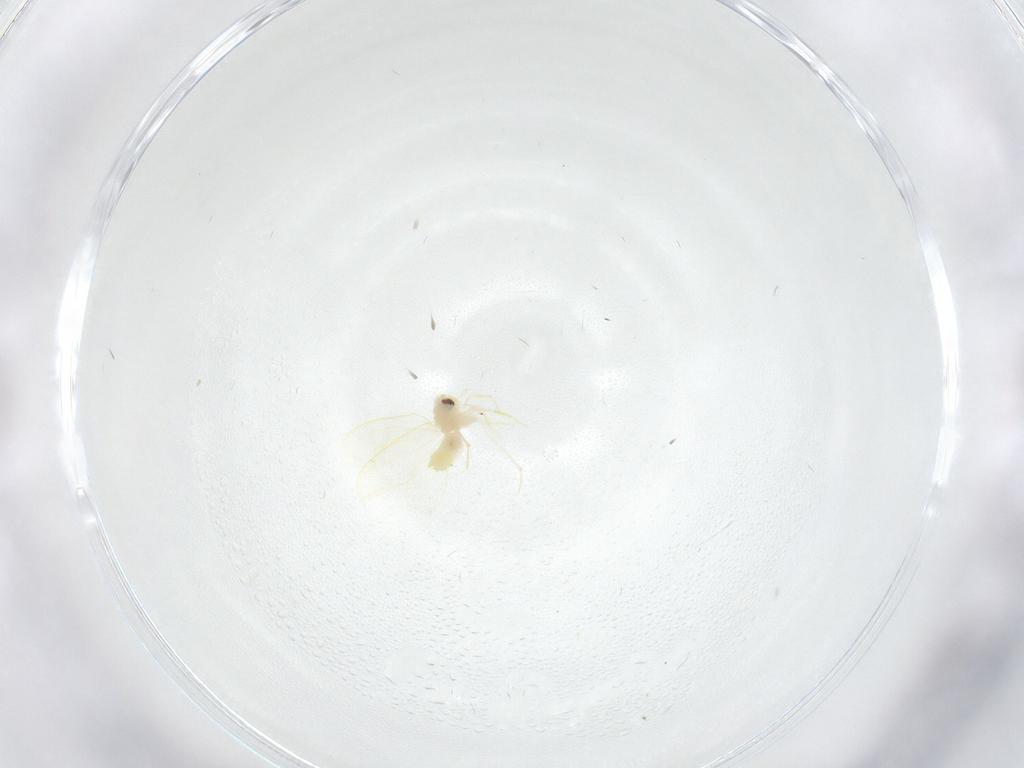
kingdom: Animalia
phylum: Arthropoda
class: Insecta
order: Hemiptera
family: Aleyrodidae
